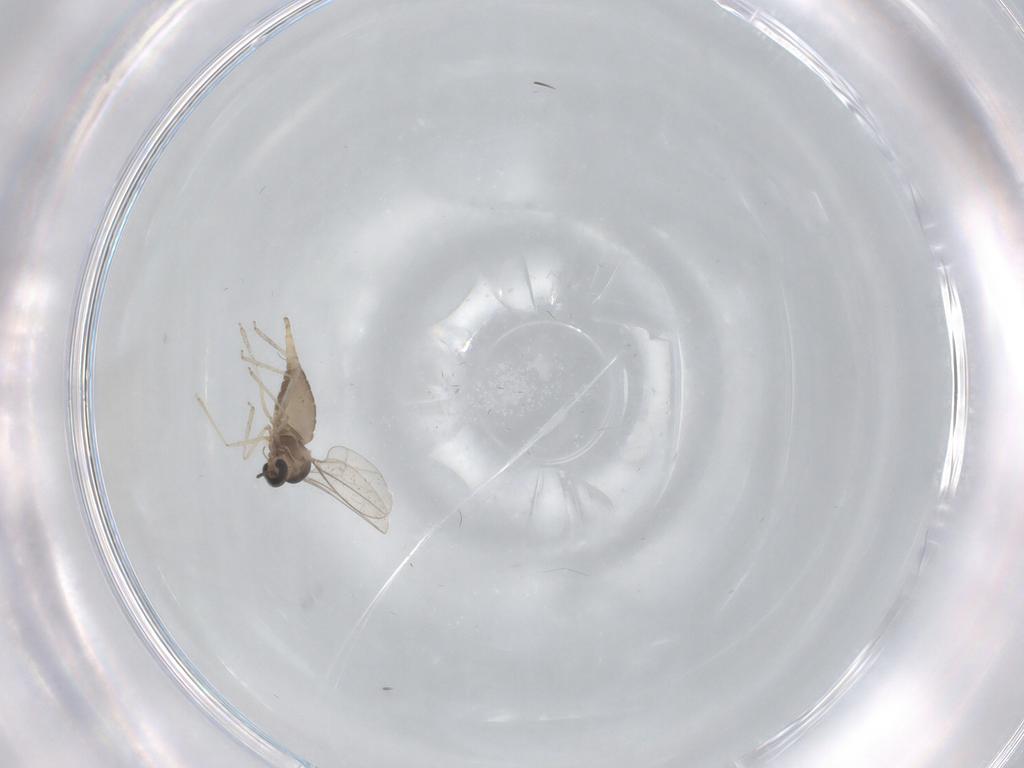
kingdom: Animalia
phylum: Arthropoda
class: Insecta
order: Diptera
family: Cecidomyiidae
